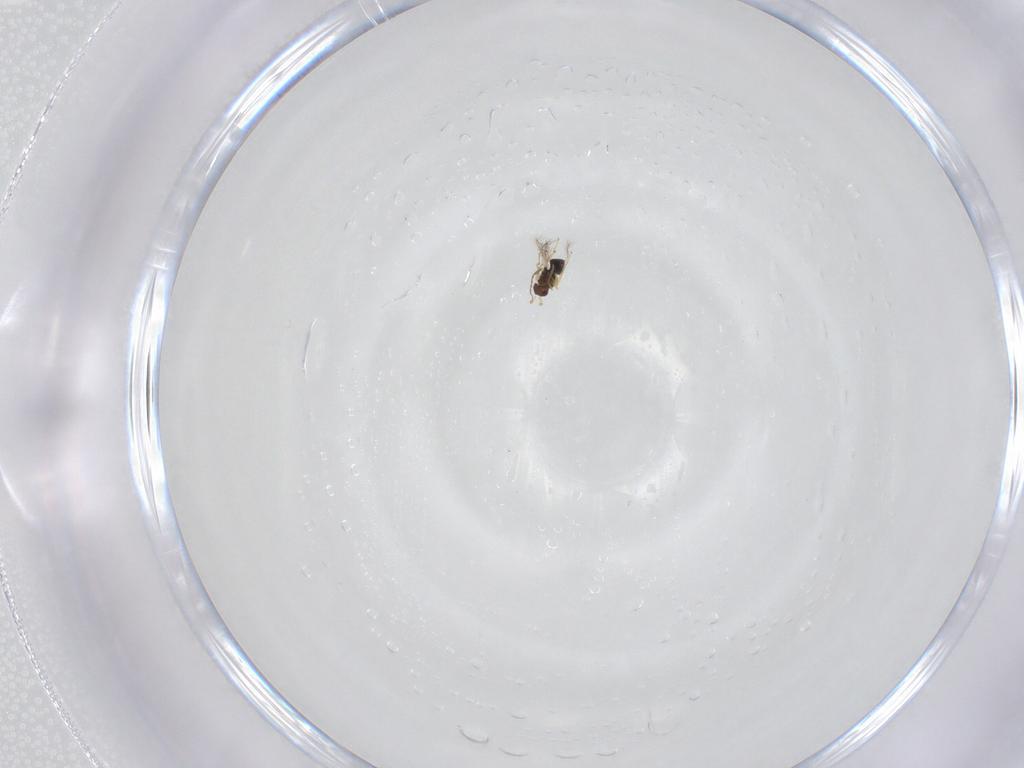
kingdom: Animalia
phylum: Arthropoda
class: Insecta
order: Hymenoptera
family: Mymaridae
